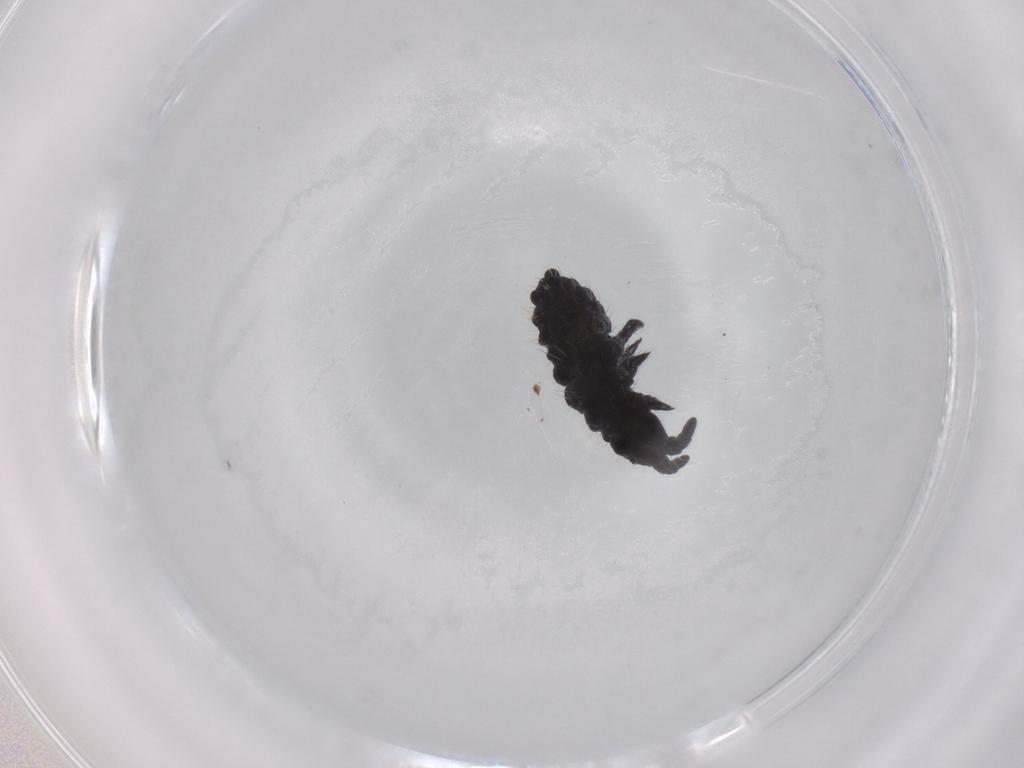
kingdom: Animalia
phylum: Arthropoda
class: Collembola
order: Poduromorpha
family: Neanuridae
